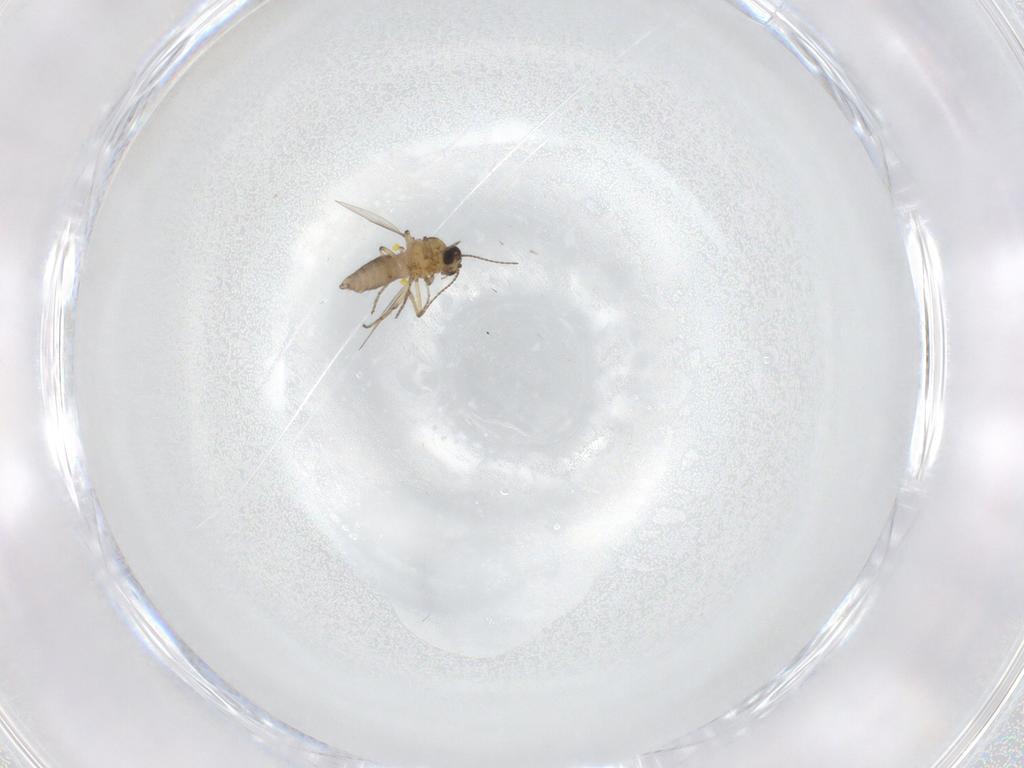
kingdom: Animalia
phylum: Arthropoda
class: Insecta
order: Diptera
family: Ceratopogonidae
